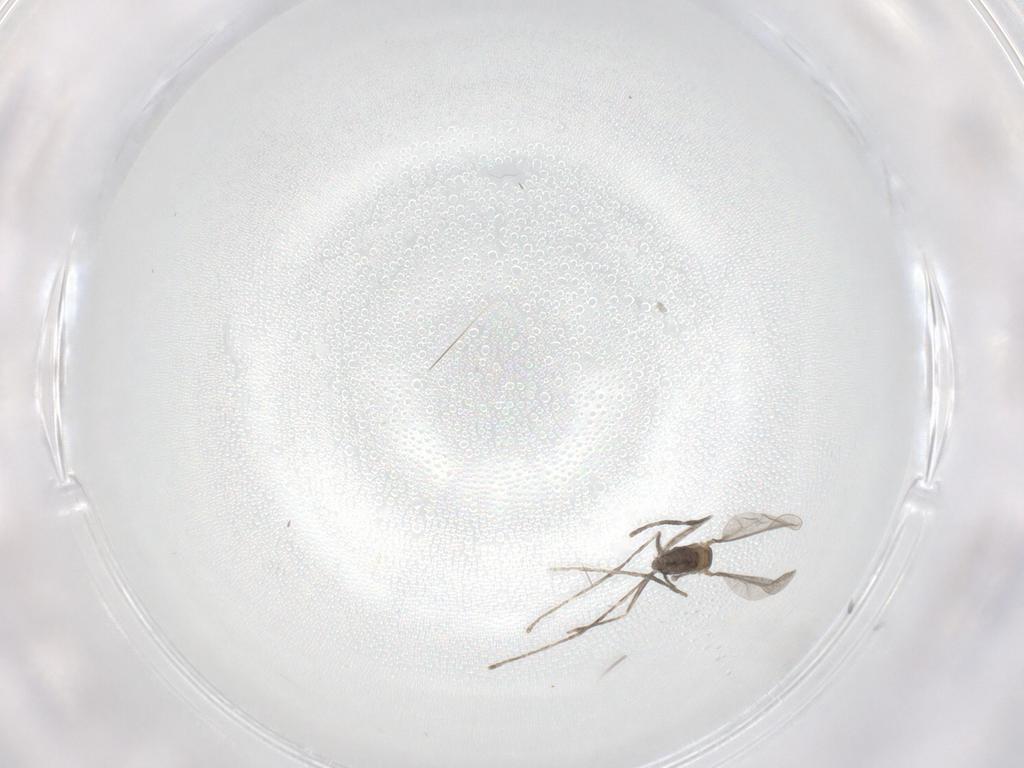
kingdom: Animalia
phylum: Arthropoda
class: Insecta
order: Diptera
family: Cecidomyiidae
